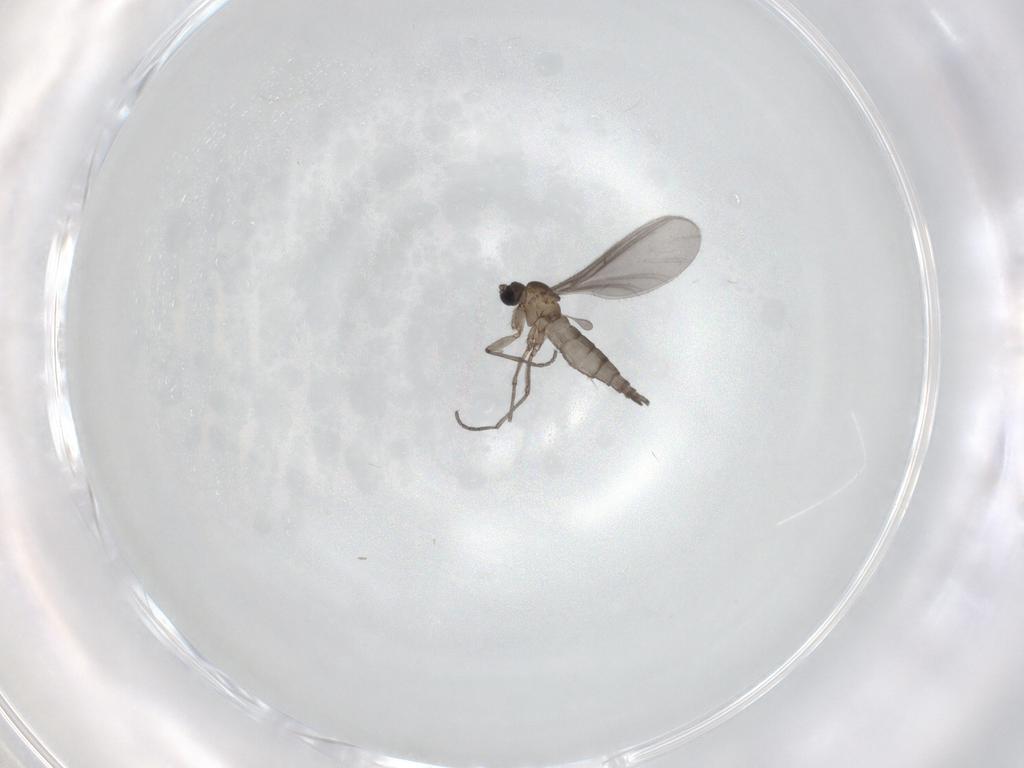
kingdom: Animalia
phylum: Arthropoda
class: Insecta
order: Diptera
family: Sciaridae
